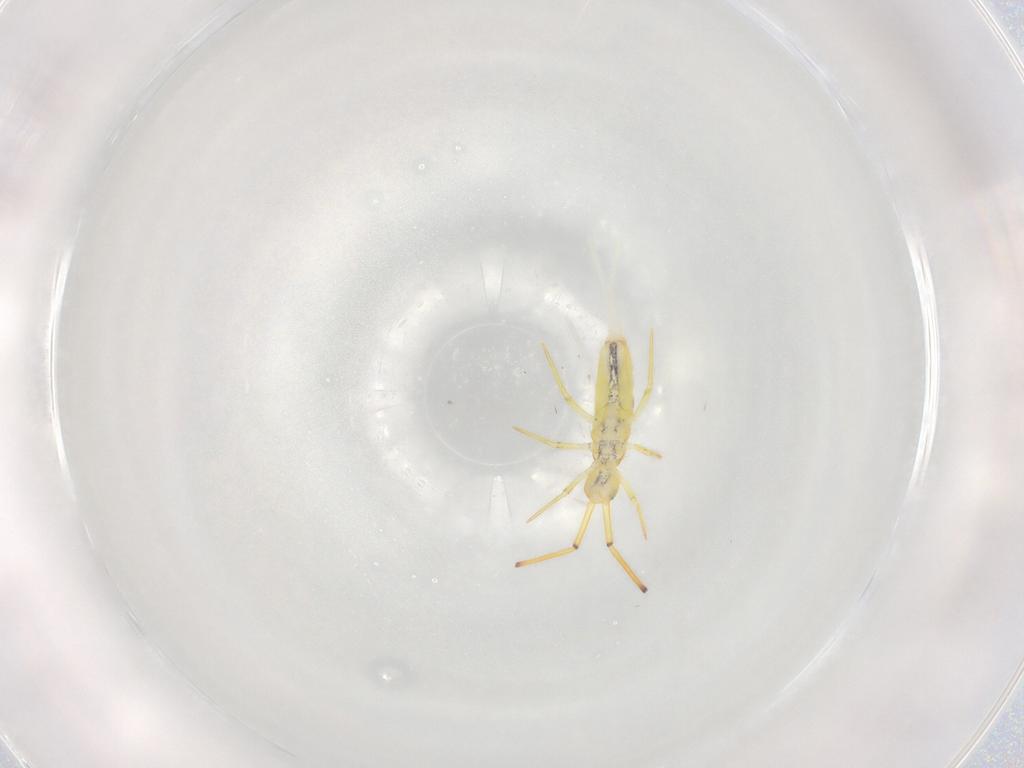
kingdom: Animalia
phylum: Arthropoda
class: Collembola
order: Entomobryomorpha
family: Entomobryidae
